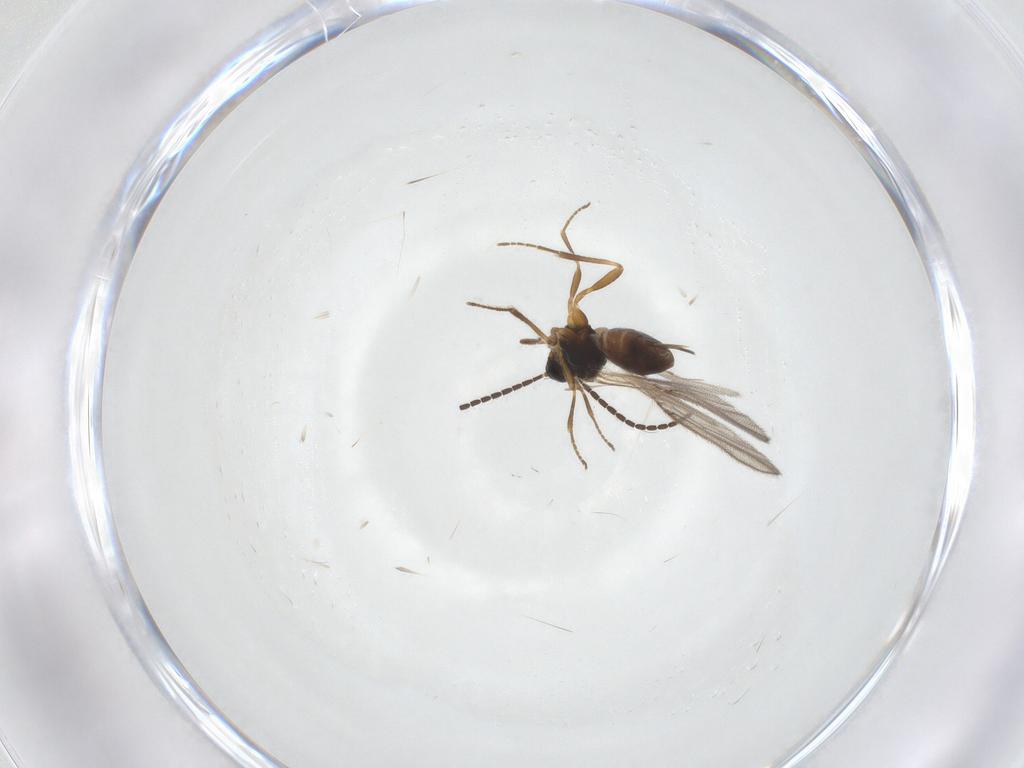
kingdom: Animalia
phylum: Arthropoda
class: Insecta
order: Hymenoptera
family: Braconidae
